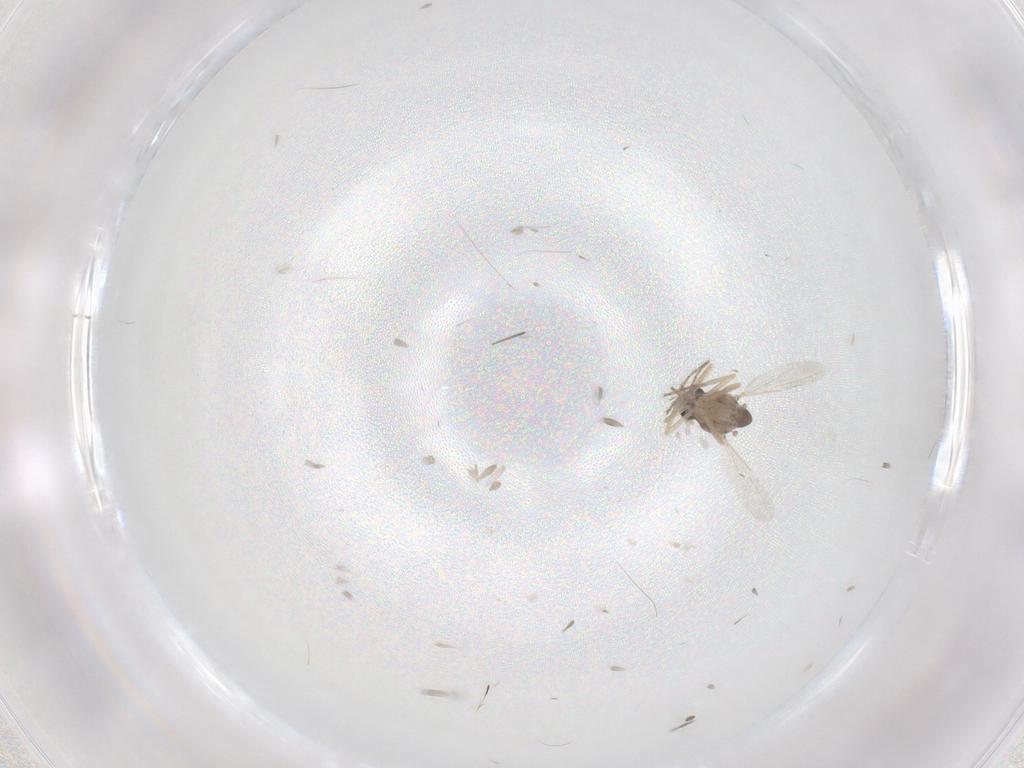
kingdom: Animalia
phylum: Arthropoda
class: Insecta
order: Diptera
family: Ceratopogonidae
